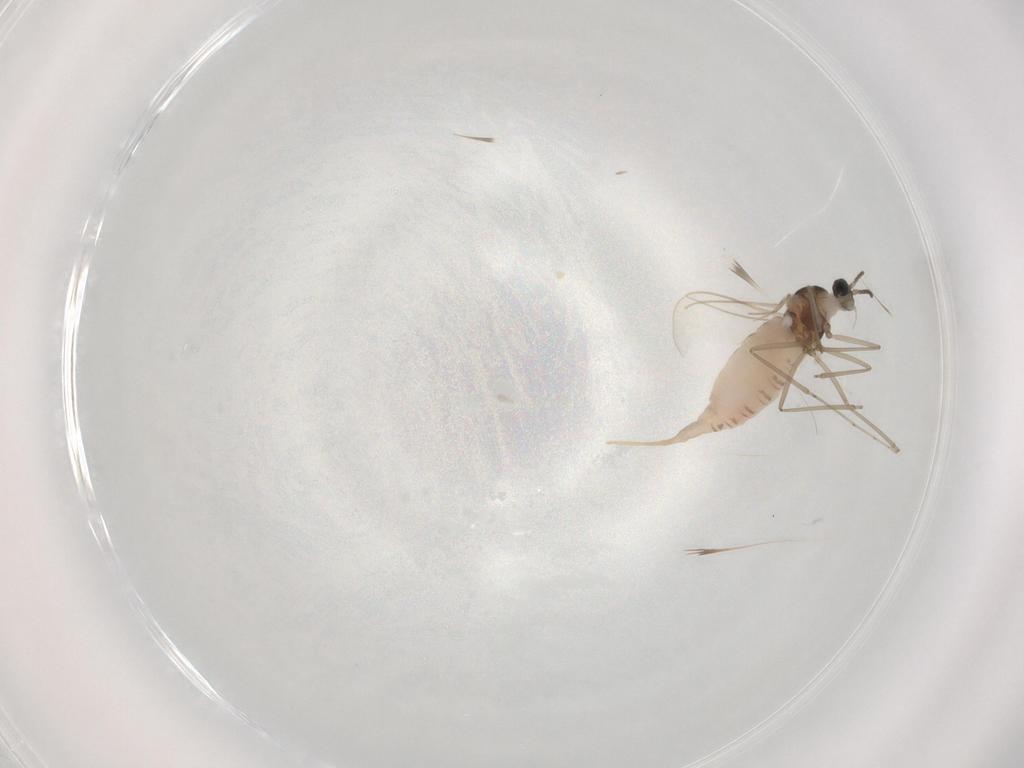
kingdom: Animalia
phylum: Arthropoda
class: Insecta
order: Diptera
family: Cecidomyiidae
